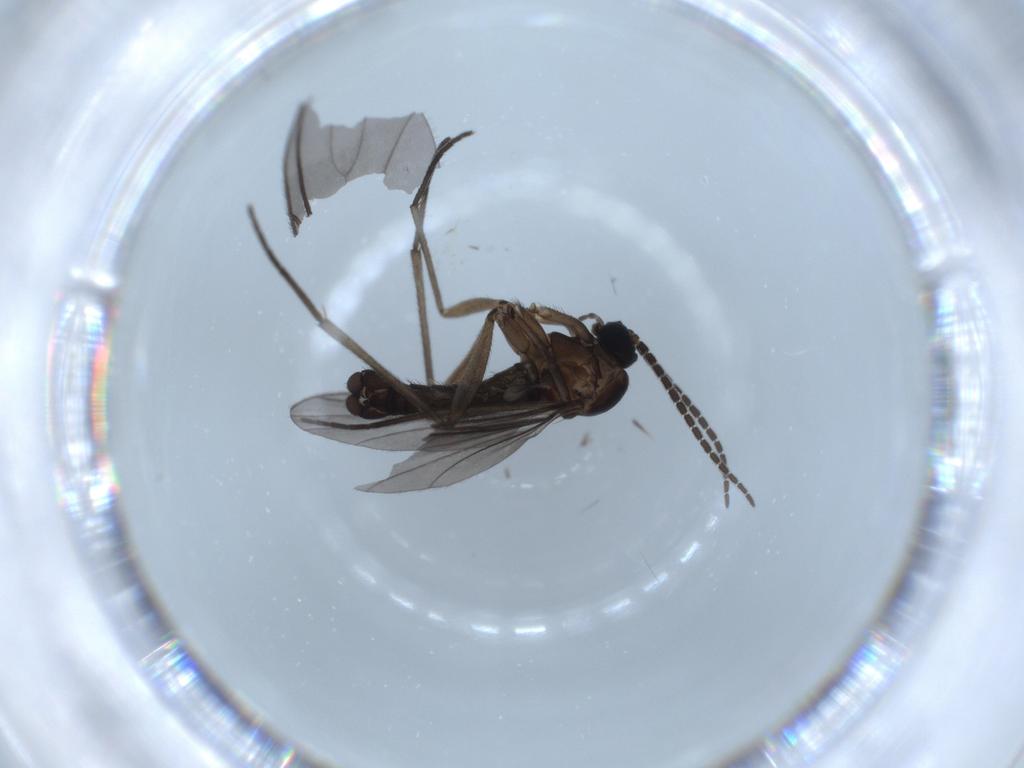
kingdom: Animalia
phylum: Arthropoda
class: Insecta
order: Diptera
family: Sciaridae
